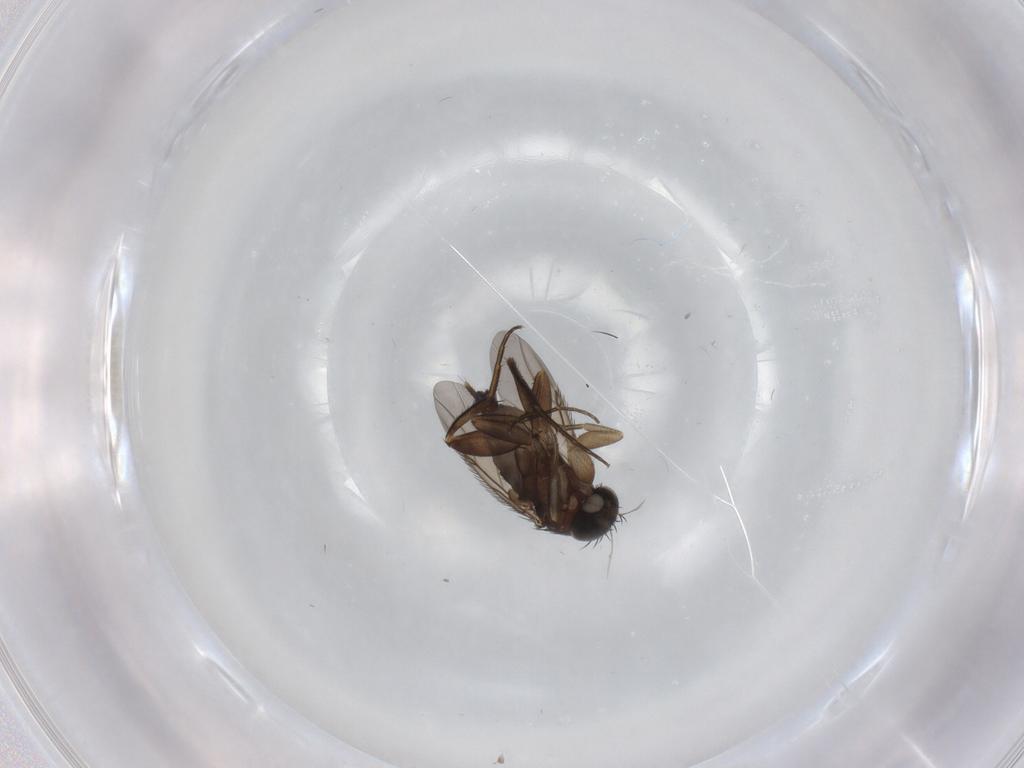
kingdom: Animalia
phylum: Arthropoda
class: Insecta
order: Diptera
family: Phoridae
